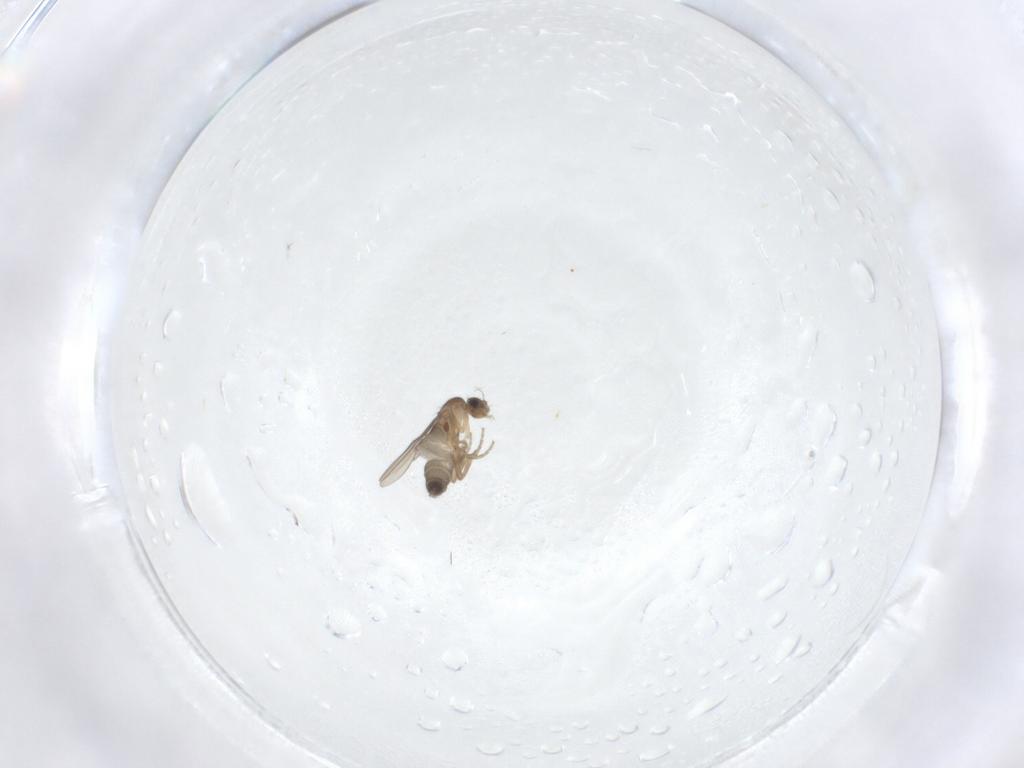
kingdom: Animalia
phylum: Arthropoda
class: Insecta
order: Diptera
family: Phoridae
